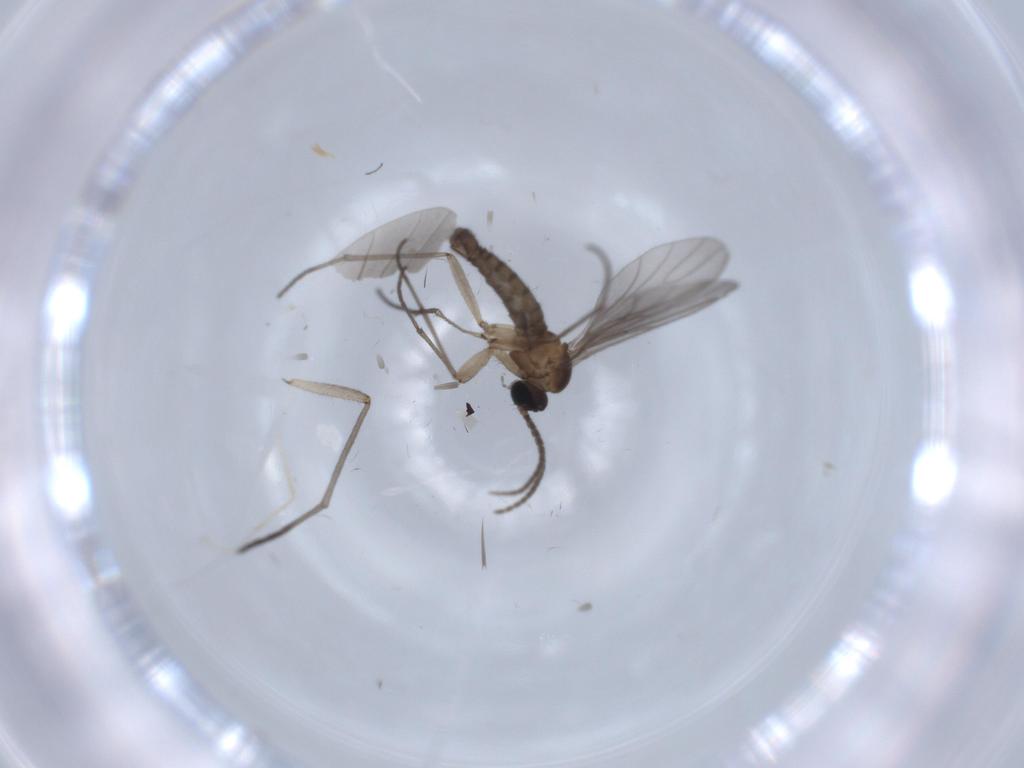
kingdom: Animalia
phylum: Arthropoda
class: Insecta
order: Diptera
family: Sciaridae
